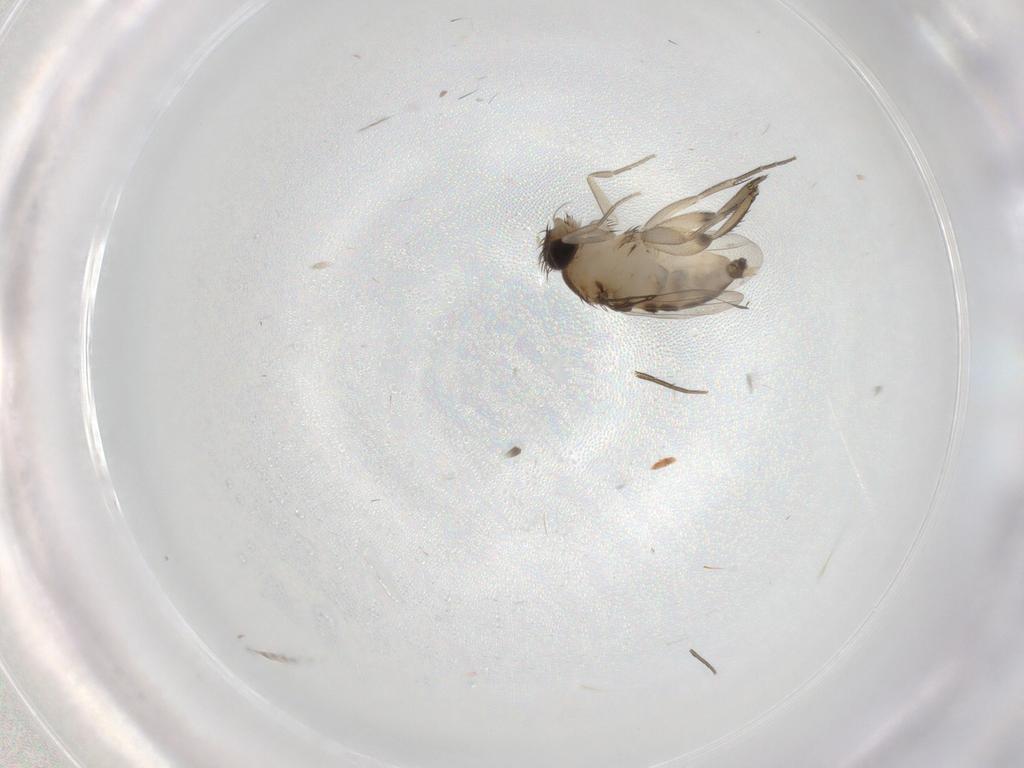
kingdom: Animalia
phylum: Arthropoda
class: Insecta
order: Diptera
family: Phoridae
